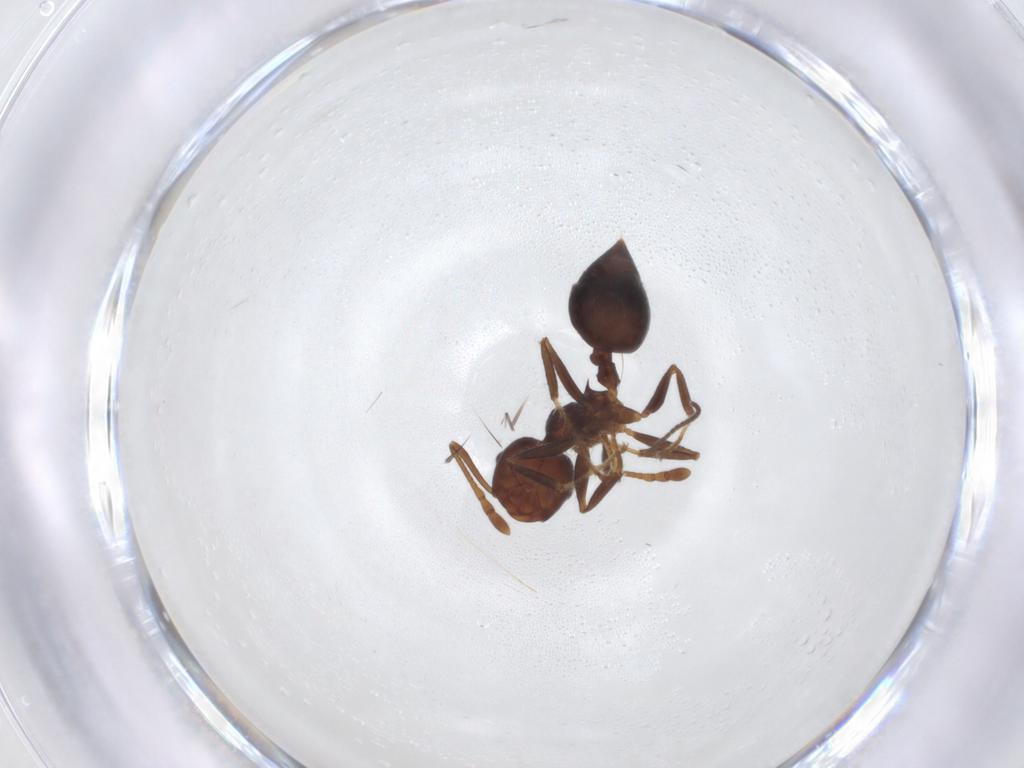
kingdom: Animalia
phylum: Arthropoda
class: Insecta
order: Hymenoptera
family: Formicidae
